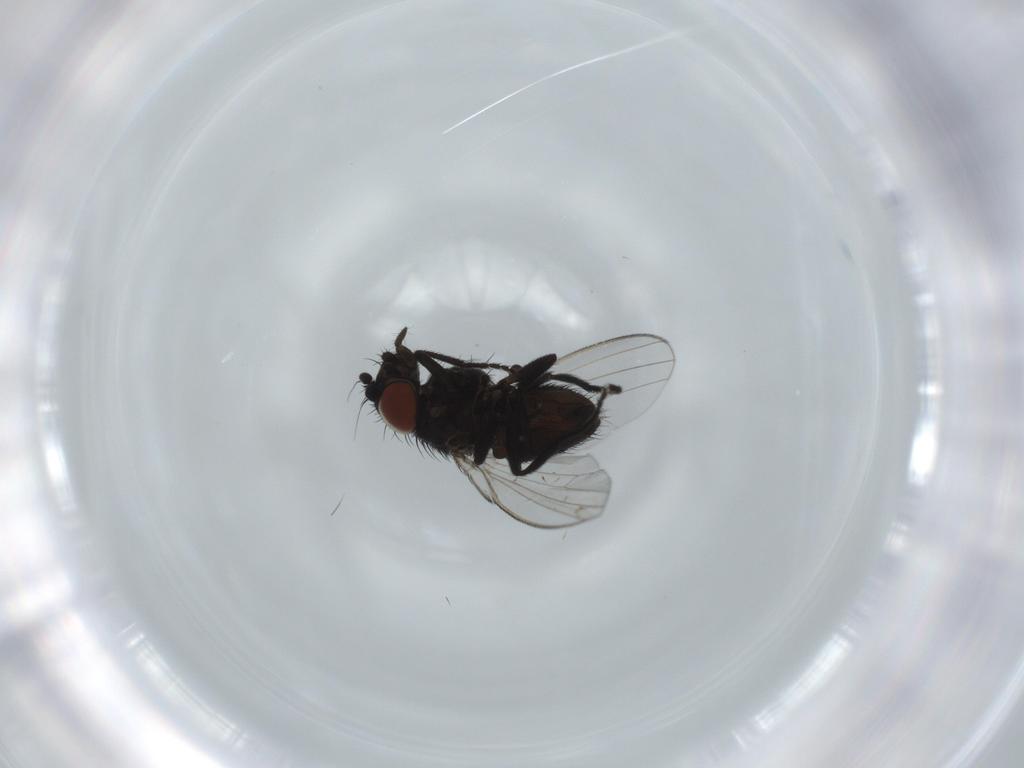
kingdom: Animalia
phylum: Arthropoda
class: Insecta
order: Diptera
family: Milichiidae
